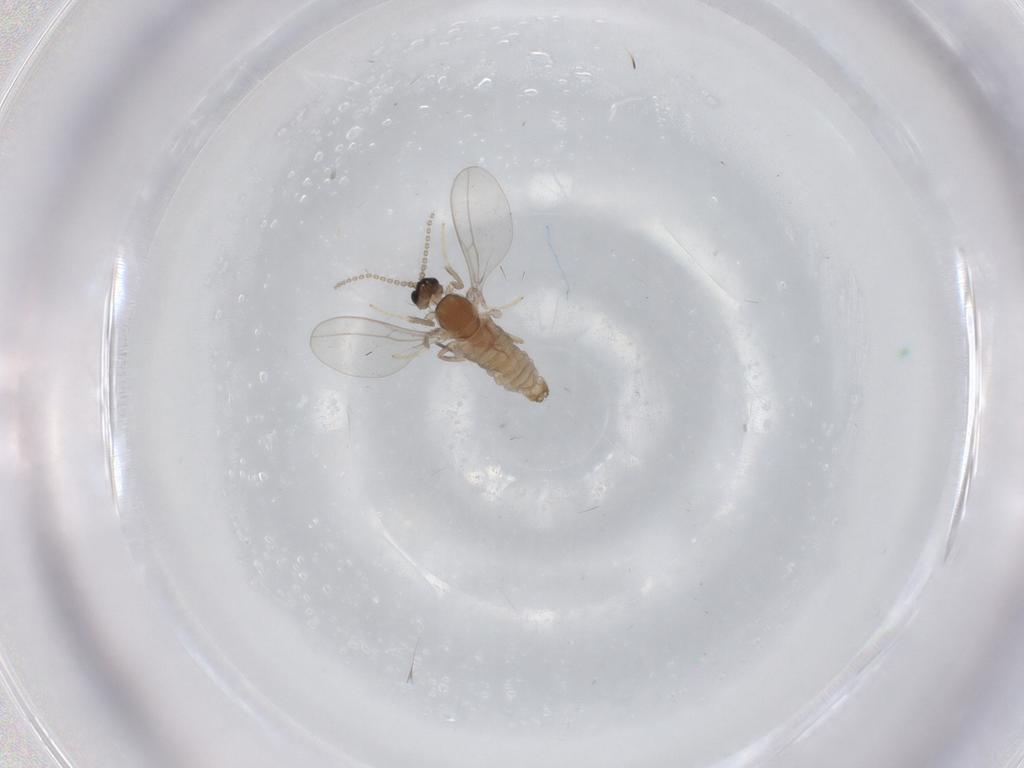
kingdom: Animalia
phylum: Arthropoda
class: Insecta
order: Diptera
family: Cecidomyiidae
